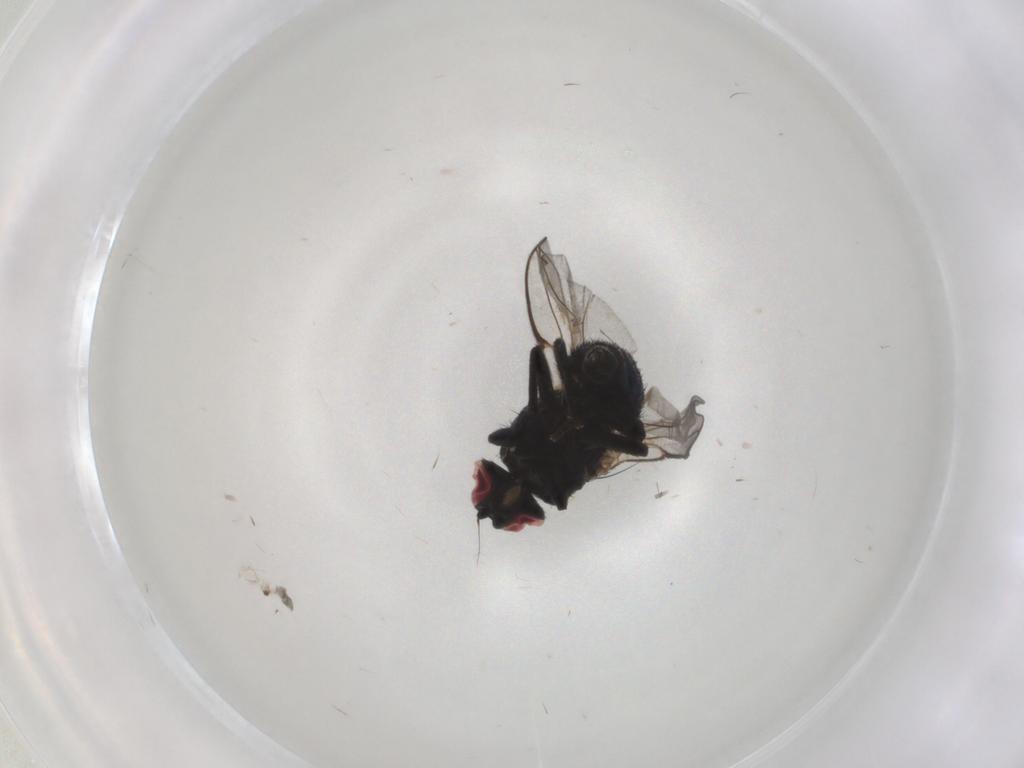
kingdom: Animalia
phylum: Arthropoda
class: Insecta
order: Diptera
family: Agromyzidae
